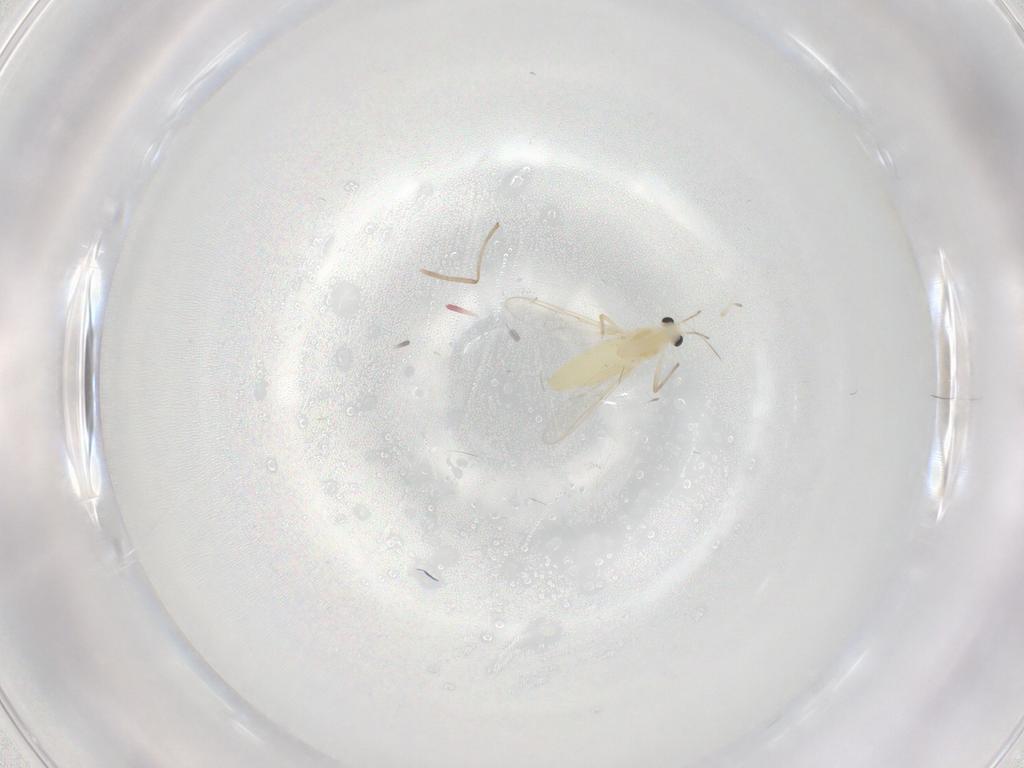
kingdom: Animalia
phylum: Arthropoda
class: Insecta
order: Diptera
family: Chironomidae
